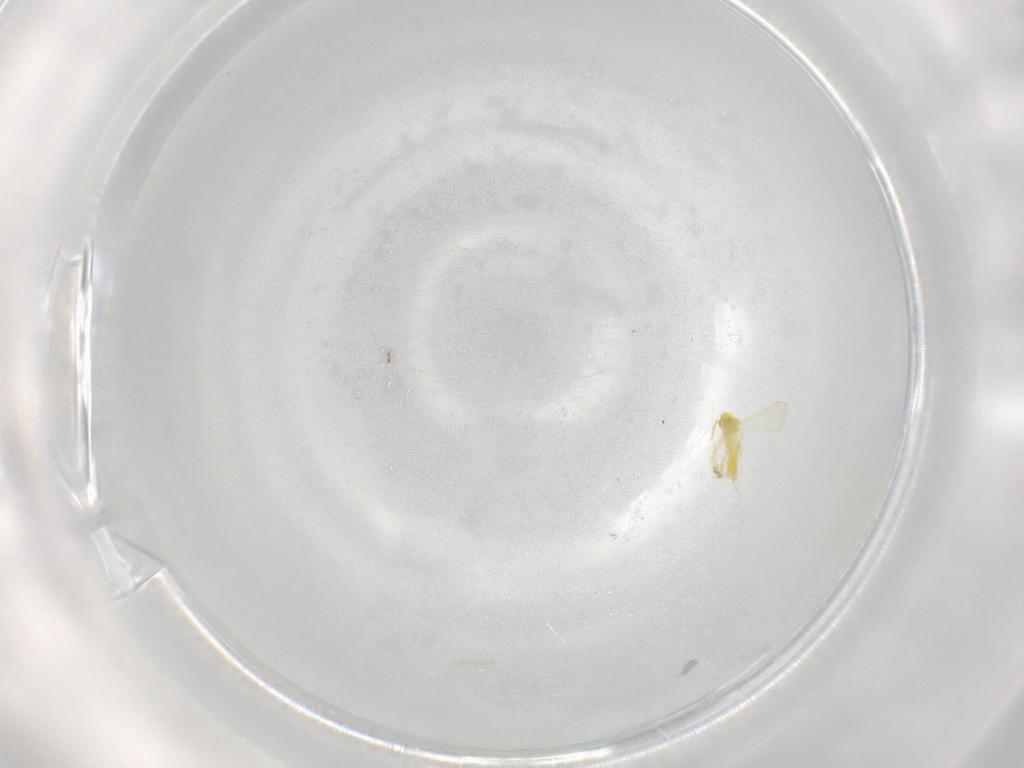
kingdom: Animalia
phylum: Arthropoda
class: Insecta
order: Hemiptera
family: Aleyrodidae
